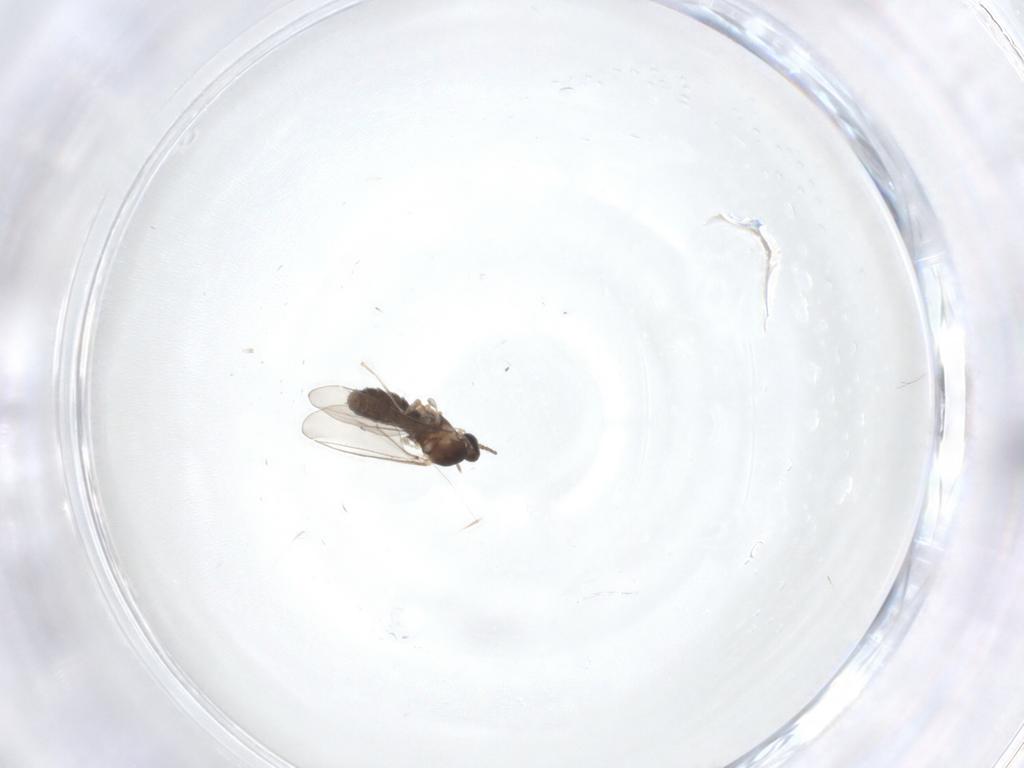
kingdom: Animalia
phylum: Arthropoda
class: Insecta
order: Diptera
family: Cecidomyiidae
